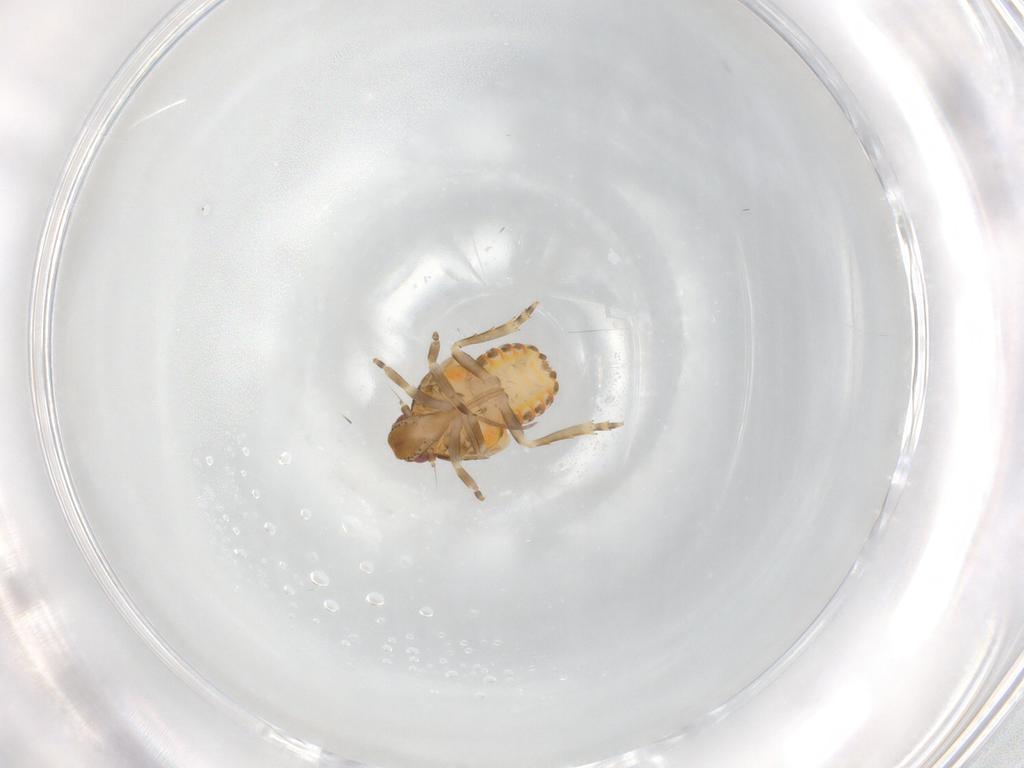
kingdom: Animalia
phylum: Arthropoda
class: Insecta
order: Hemiptera
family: Flatidae
